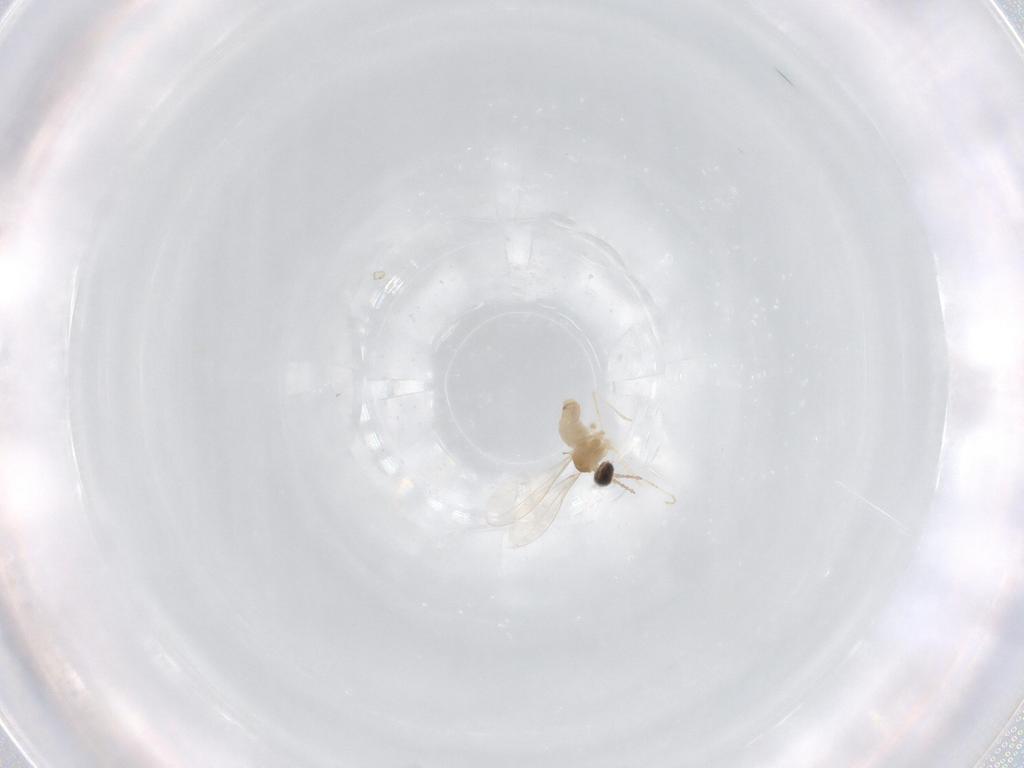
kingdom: Animalia
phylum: Arthropoda
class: Insecta
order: Diptera
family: Cecidomyiidae
